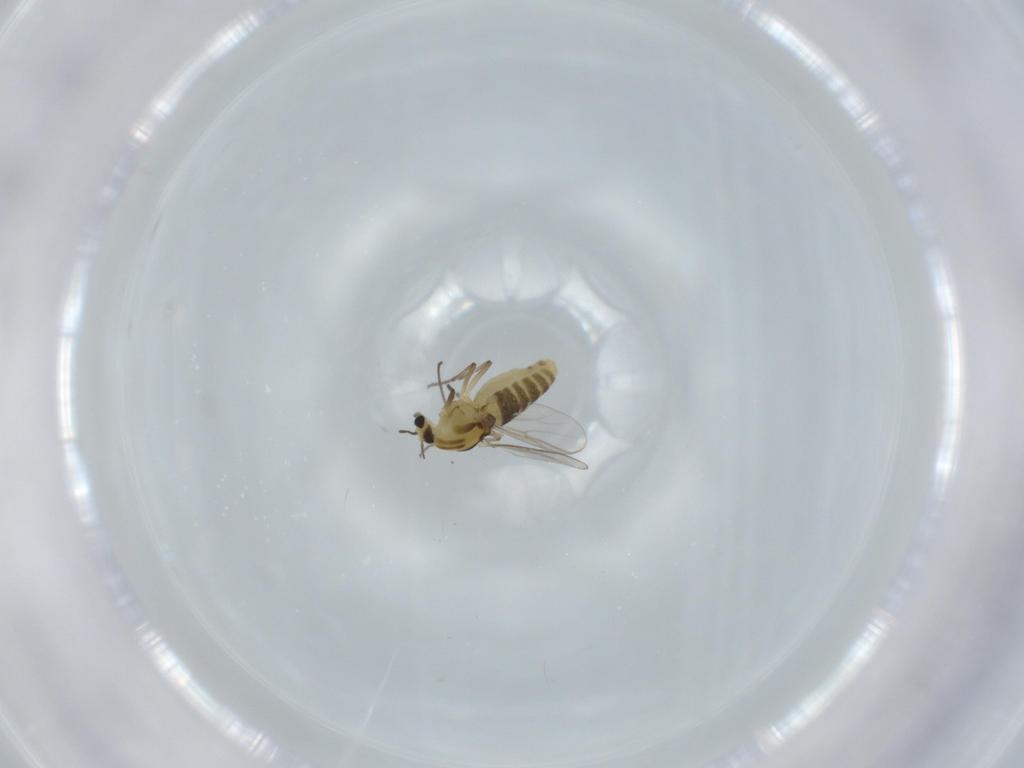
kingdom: Animalia
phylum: Arthropoda
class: Insecta
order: Diptera
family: Chironomidae
